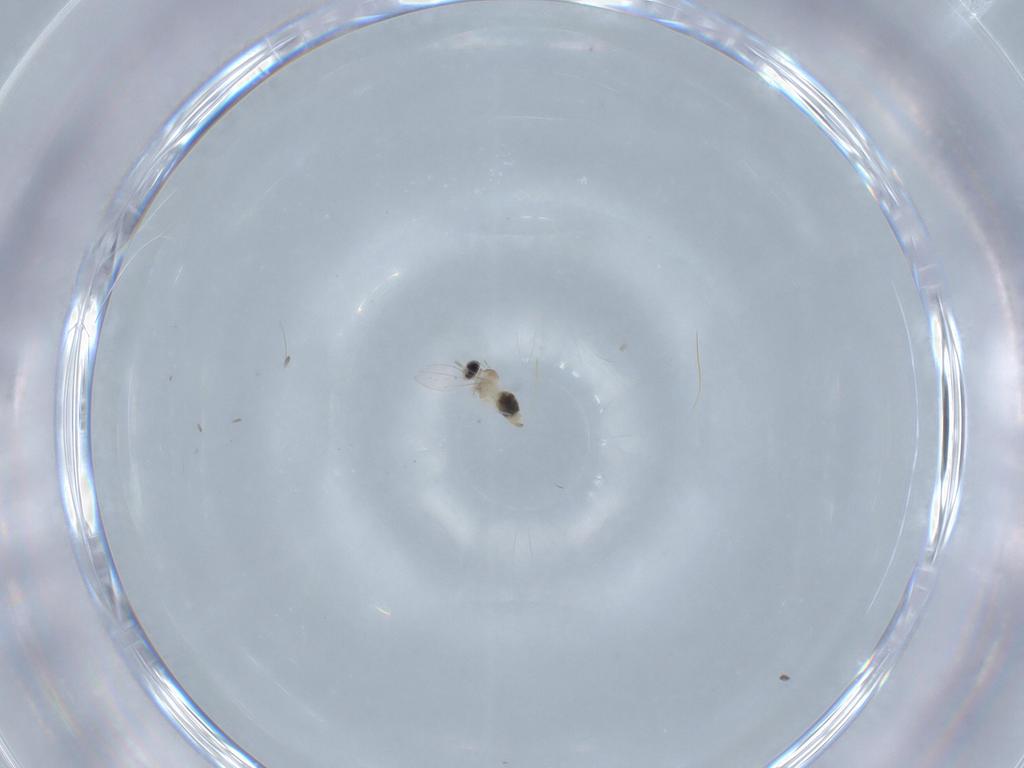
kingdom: Animalia
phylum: Arthropoda
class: Insecta
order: Diptera
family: Cecidomyiidae
